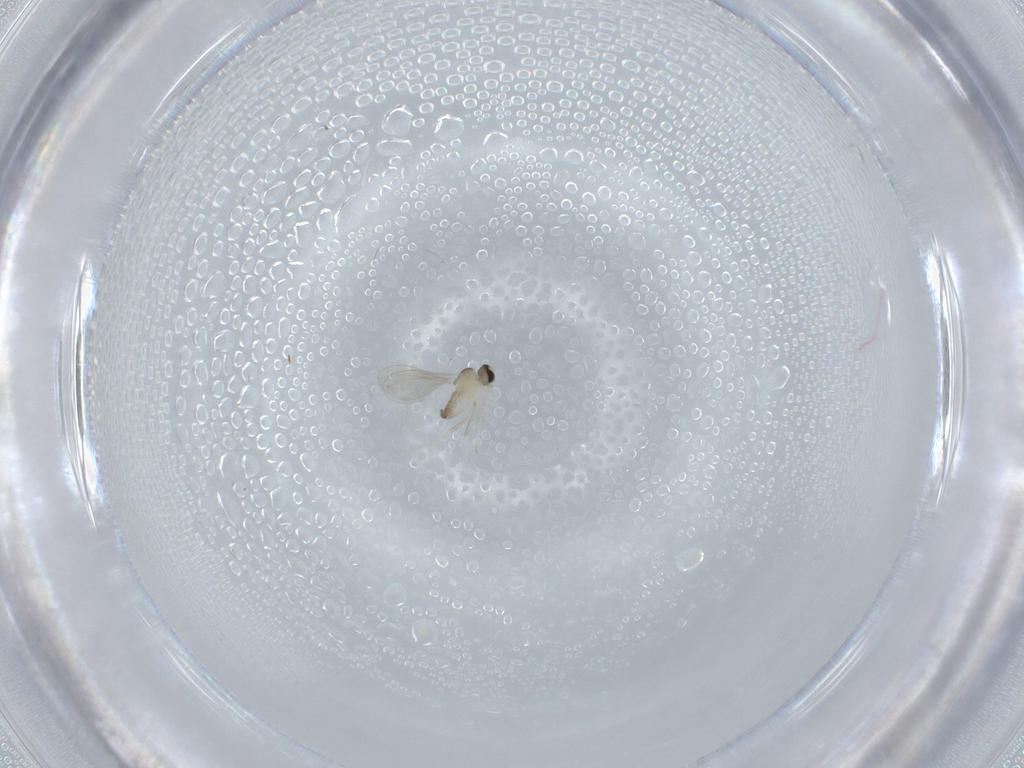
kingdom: Animalia
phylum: Arthropoda
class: Insecta
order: Diptera
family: Cecidomyiidae
